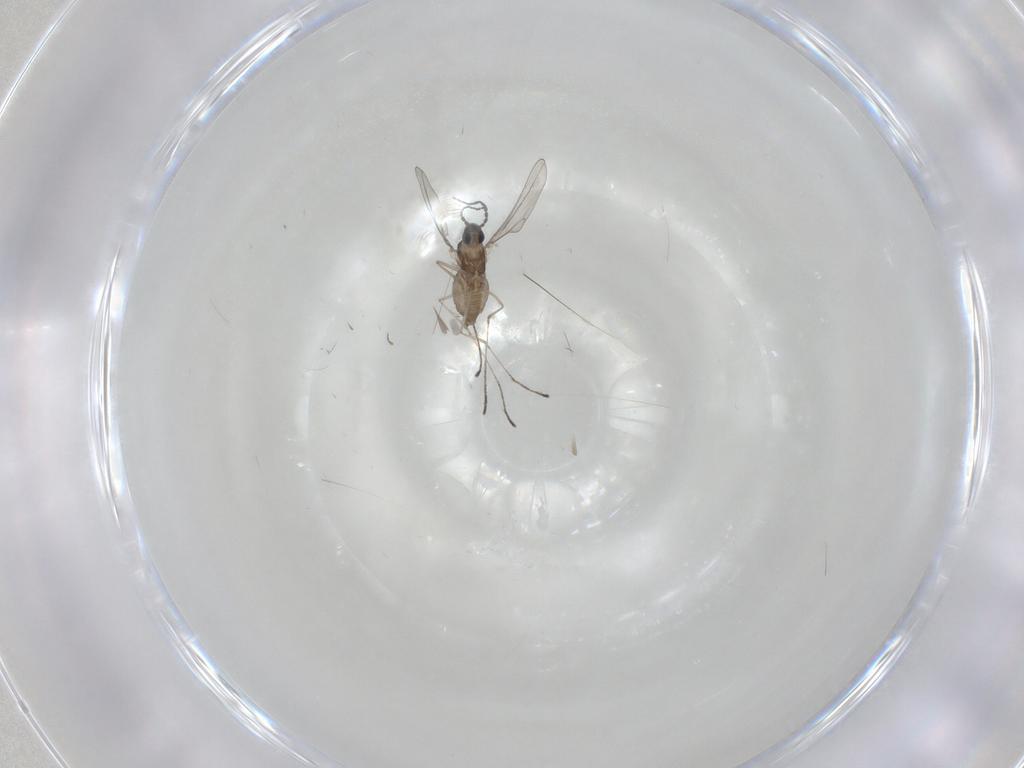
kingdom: Animalia
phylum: Arthropoda
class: Insecta
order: Diptera
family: Cecidomyiidae
